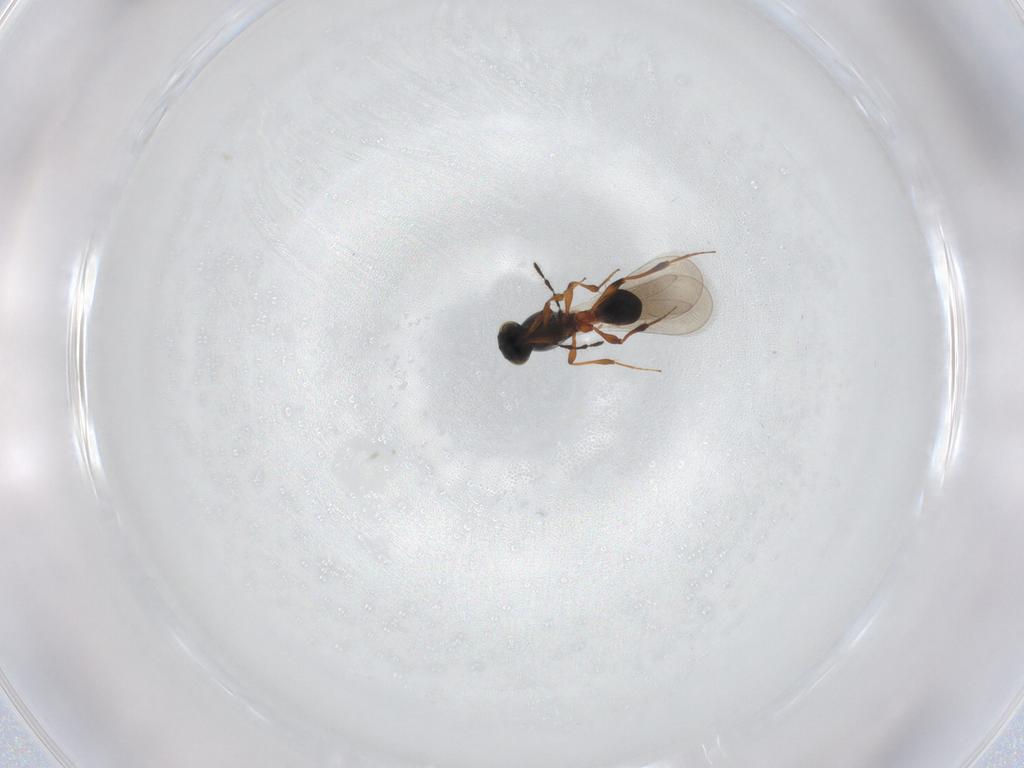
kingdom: Animalia
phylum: Arthropoda
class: Insecta
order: Hymenoptera
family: Platygastridae
